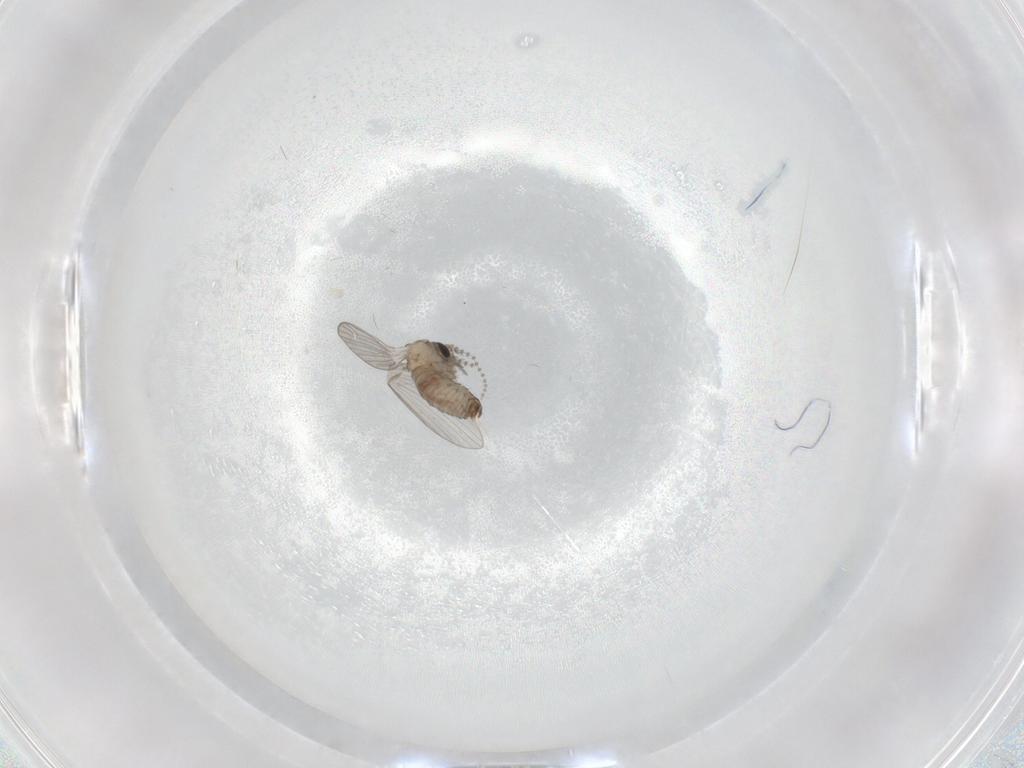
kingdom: Animalia
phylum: Arthropoda
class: Insecta
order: Diptera
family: Psychodidae
